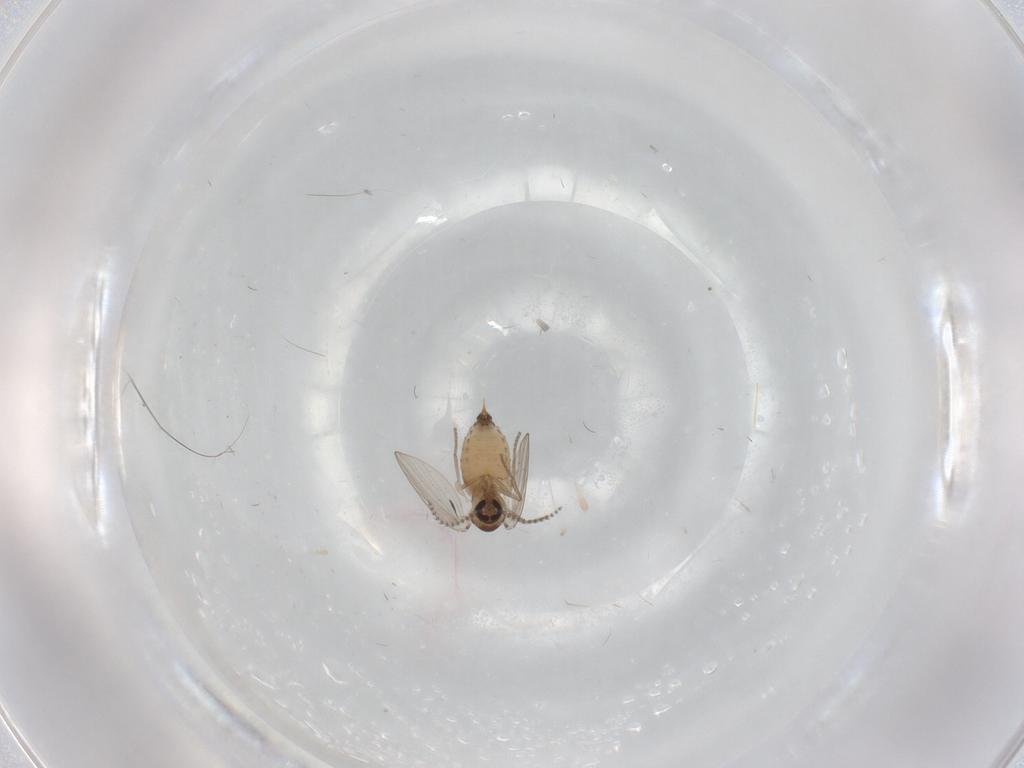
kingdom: Animalia
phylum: Arthropoda
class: Insecta
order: Diptera
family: Psychodidae
